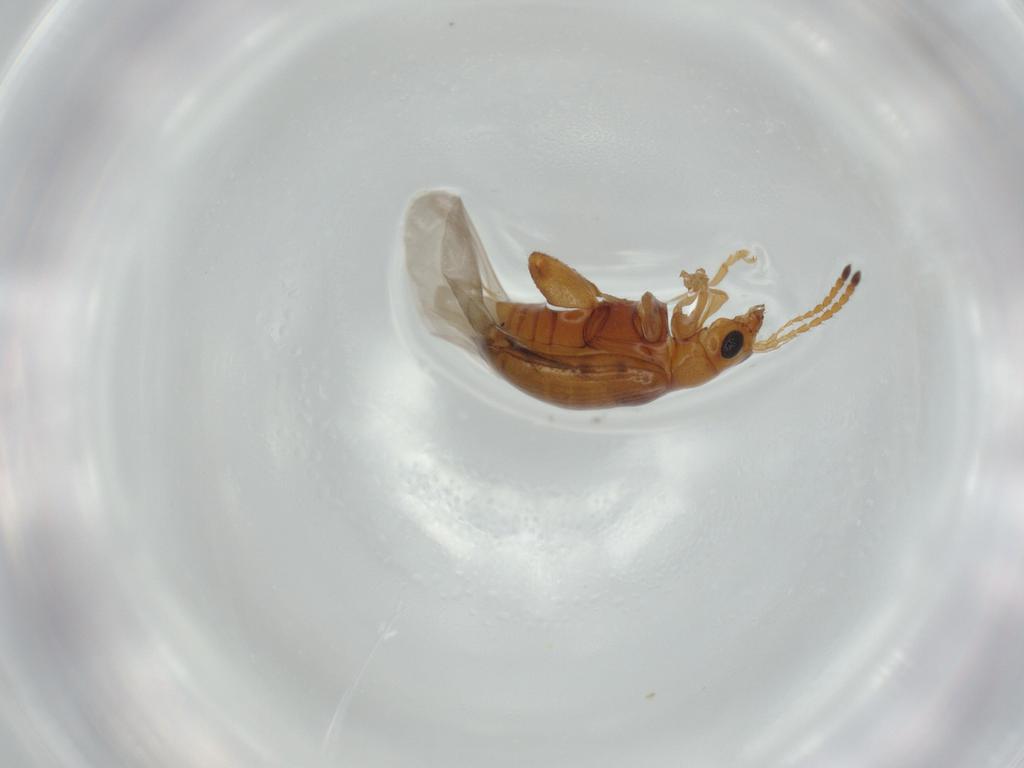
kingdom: Animalia
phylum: Arthropoda
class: Insecta
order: Coleoptera
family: Chrysomelidae
